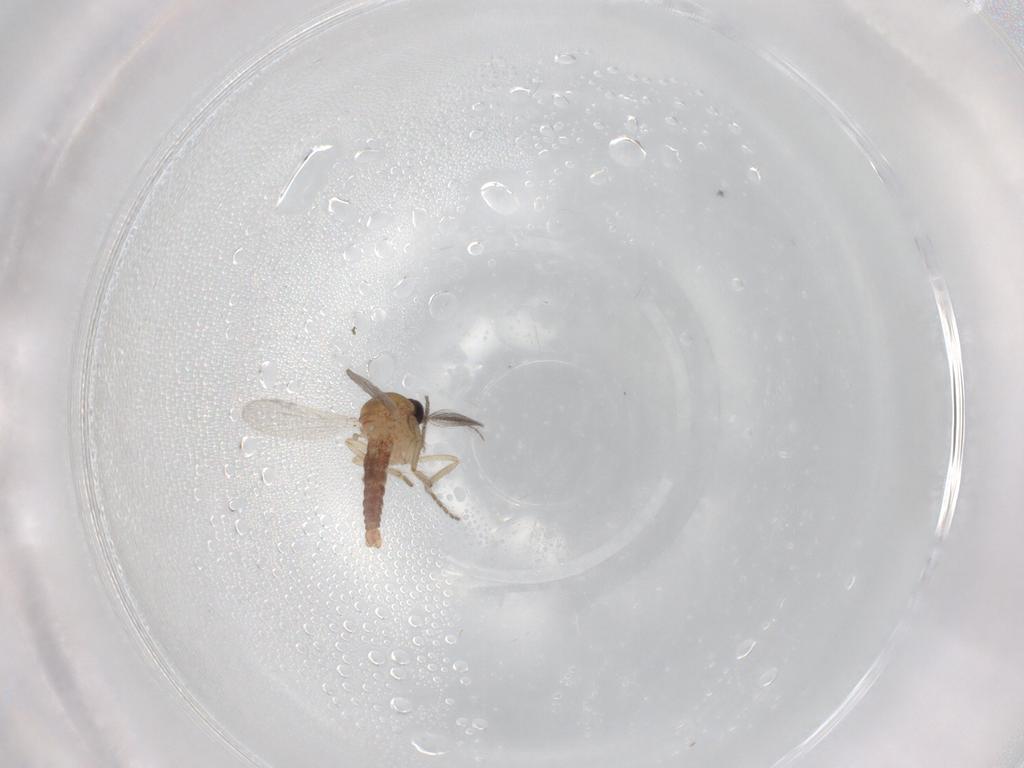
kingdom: Animalia
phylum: Arthropoda
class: Insecta
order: Diptera
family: Ceratopogonidae
